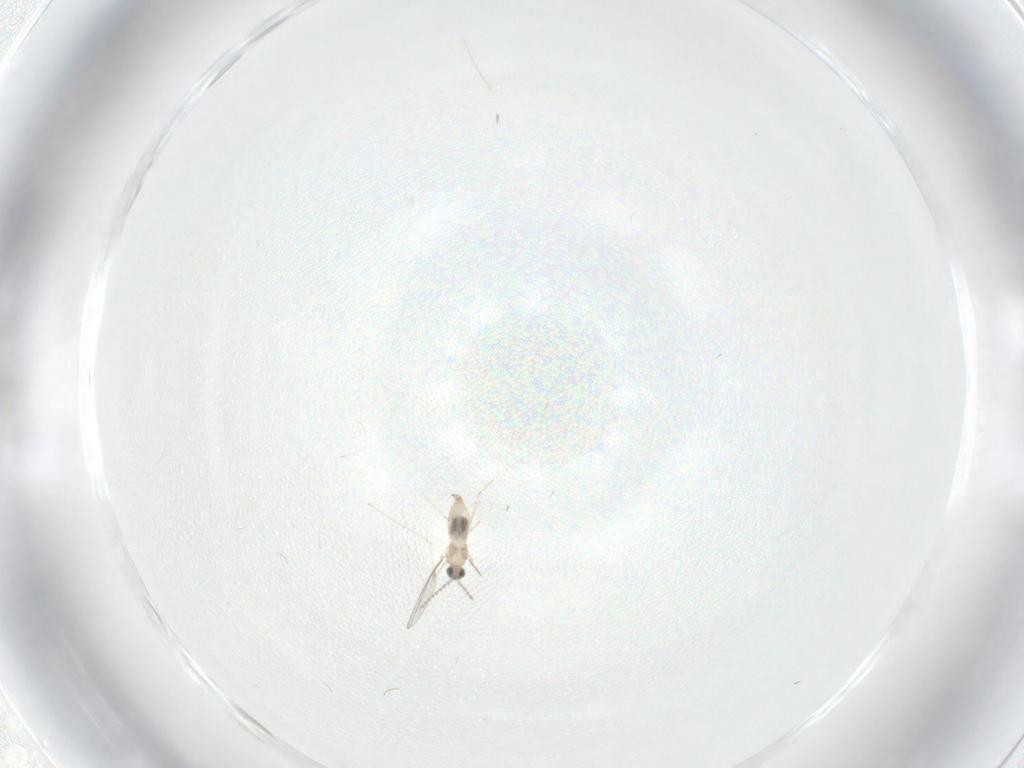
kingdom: Animalia
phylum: Arthropoda
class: Insecta
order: Diptera
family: Cecidomyiidae
